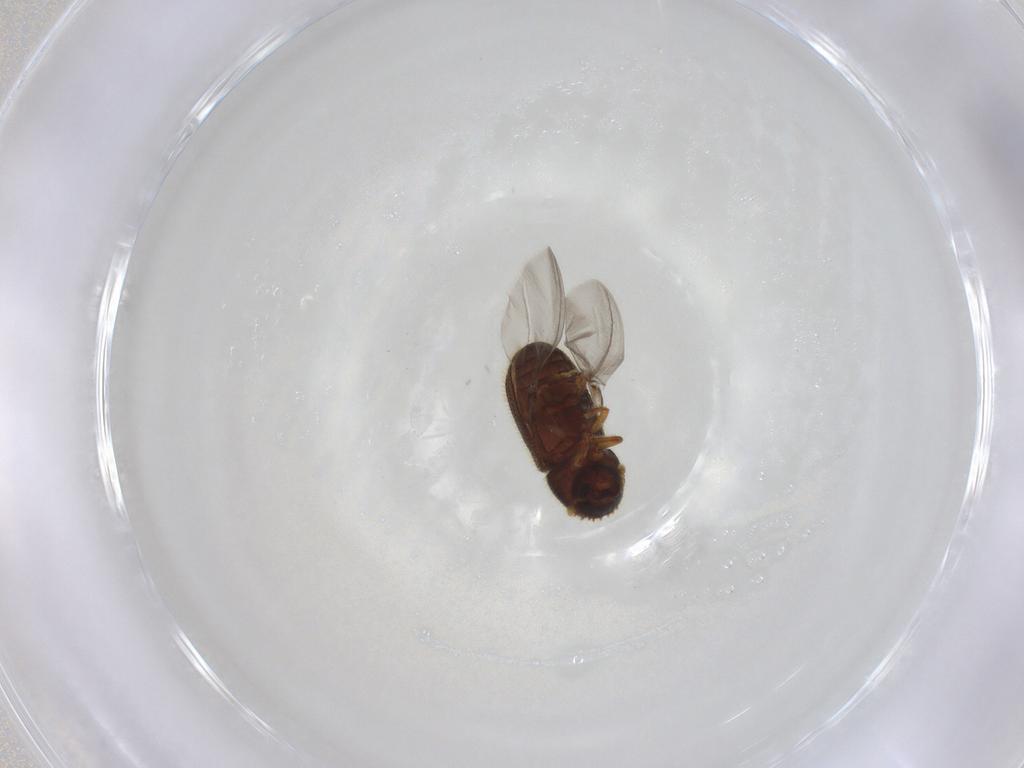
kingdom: Animalia
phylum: Arthropoda
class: Insecta
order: Diptera
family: Mycetophilidae
